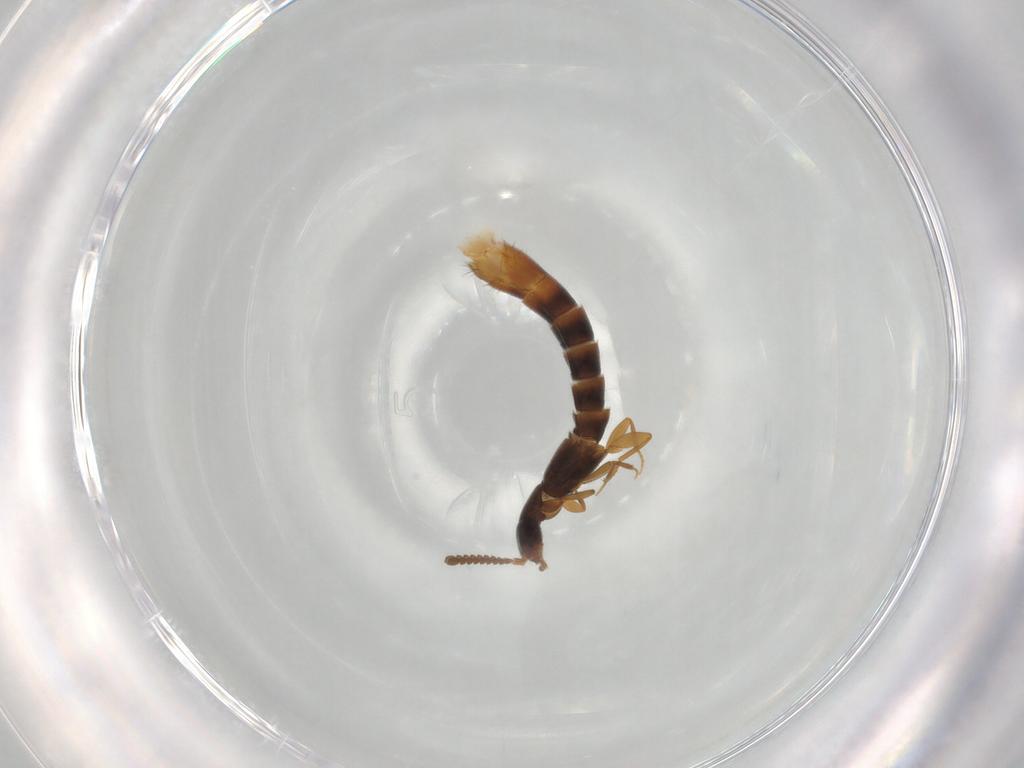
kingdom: Animalia
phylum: Arthropoda
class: Insecta
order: Coleoptera
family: Staphylinidae
